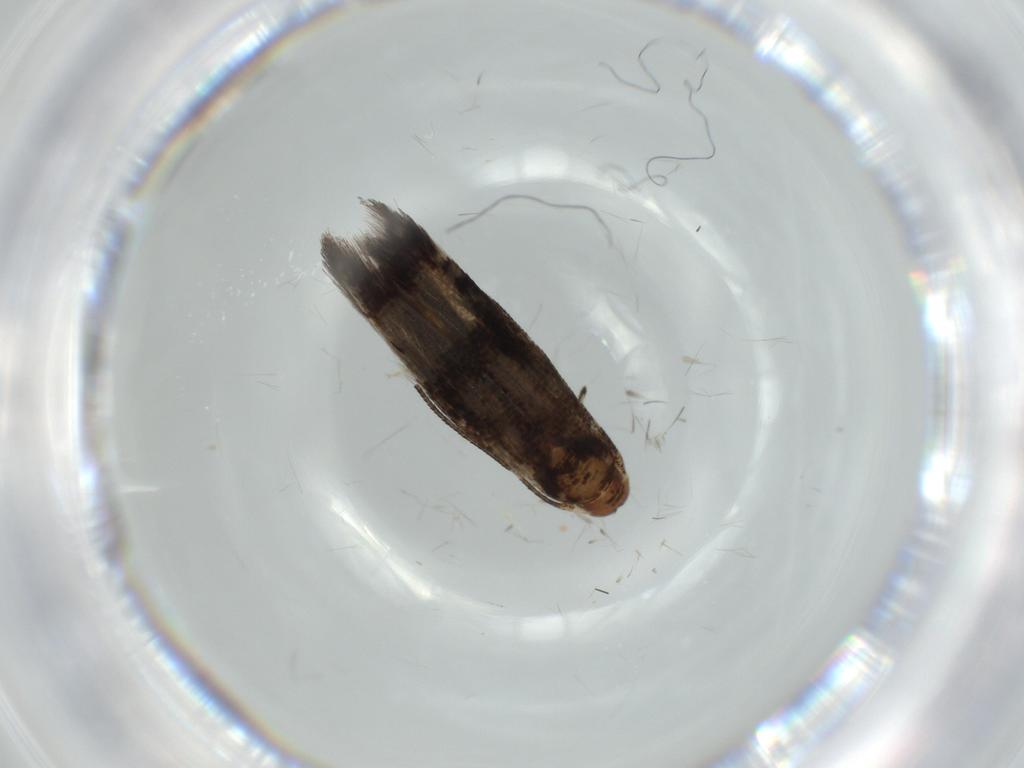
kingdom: Animalia
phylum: Arthropoda
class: Insecta
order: Lepidoptera
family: Momphidae
